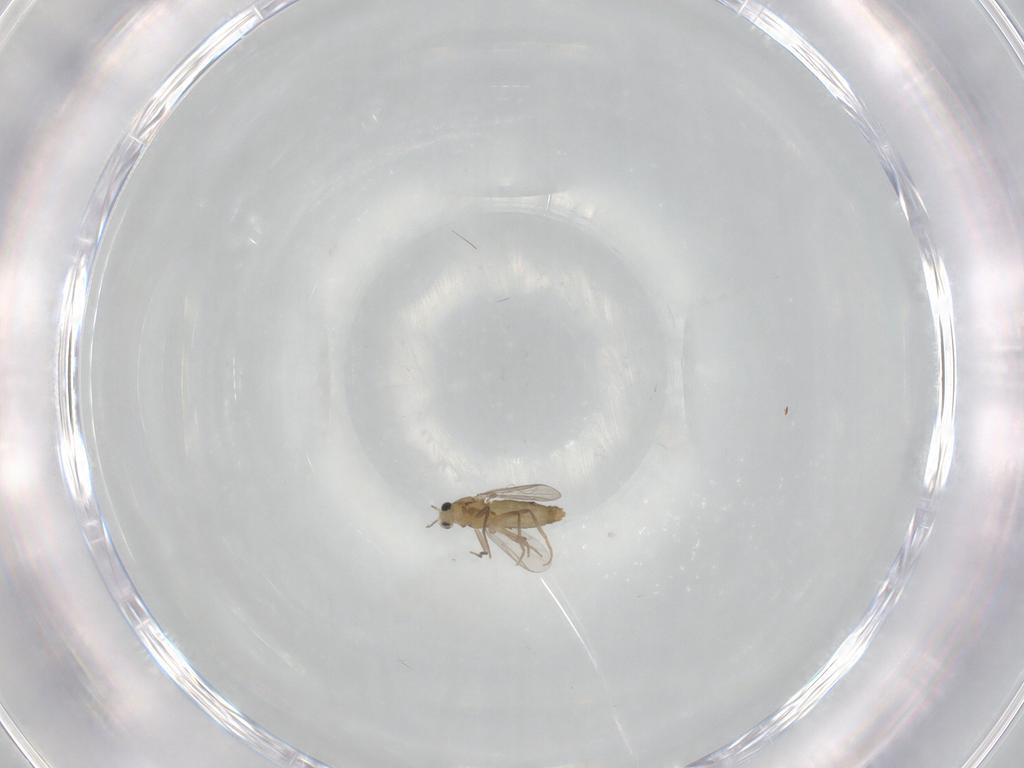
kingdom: Animalia
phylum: Arthropoda
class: Insecta
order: Diptera
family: Chironomidae
